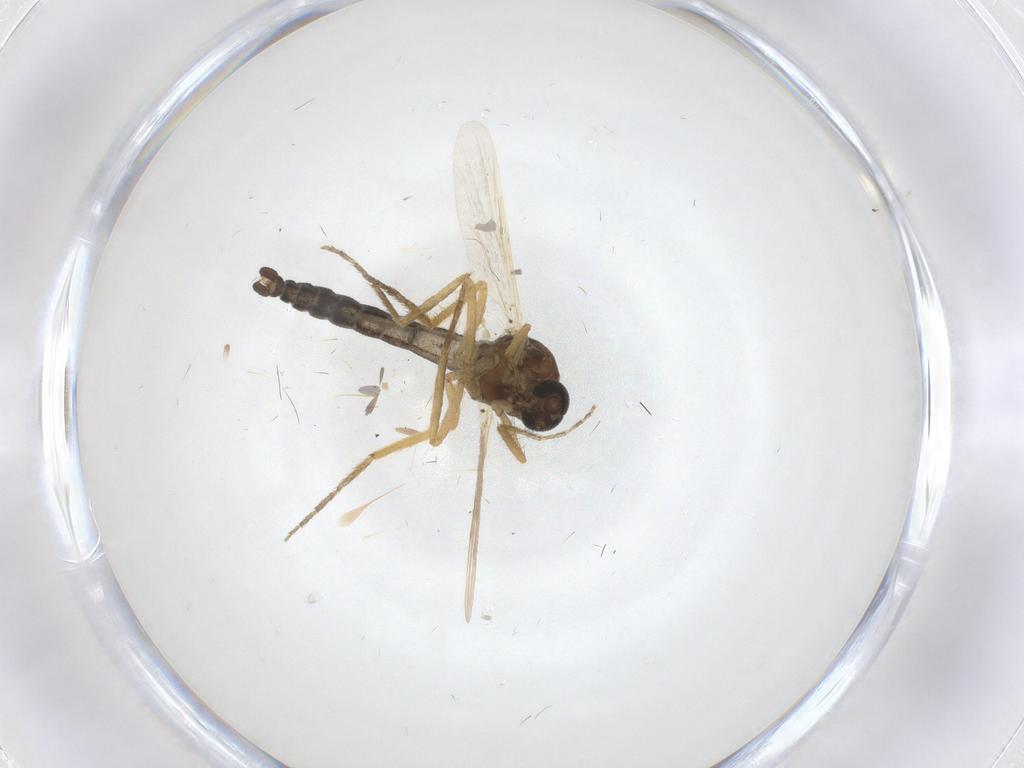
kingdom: Animalia
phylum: Arthropoda
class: Insecta
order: Diptera
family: Ceratopogonidae
